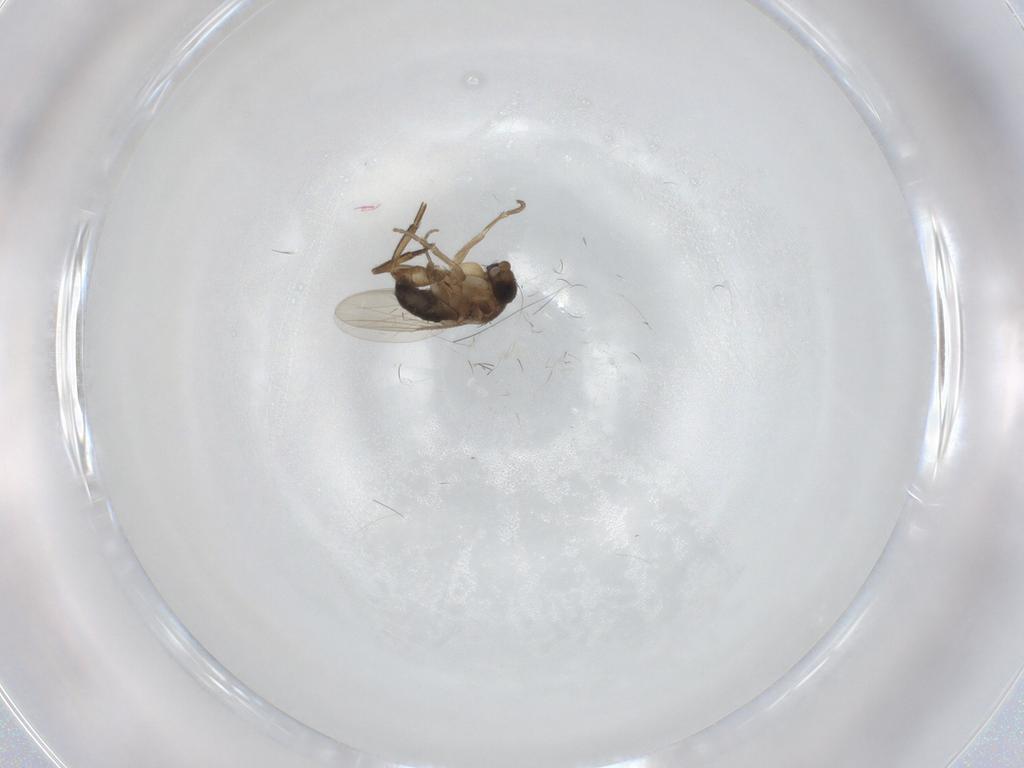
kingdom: Animalia
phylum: Arthropoda
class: Insecta
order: Diptera
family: Phoridae
